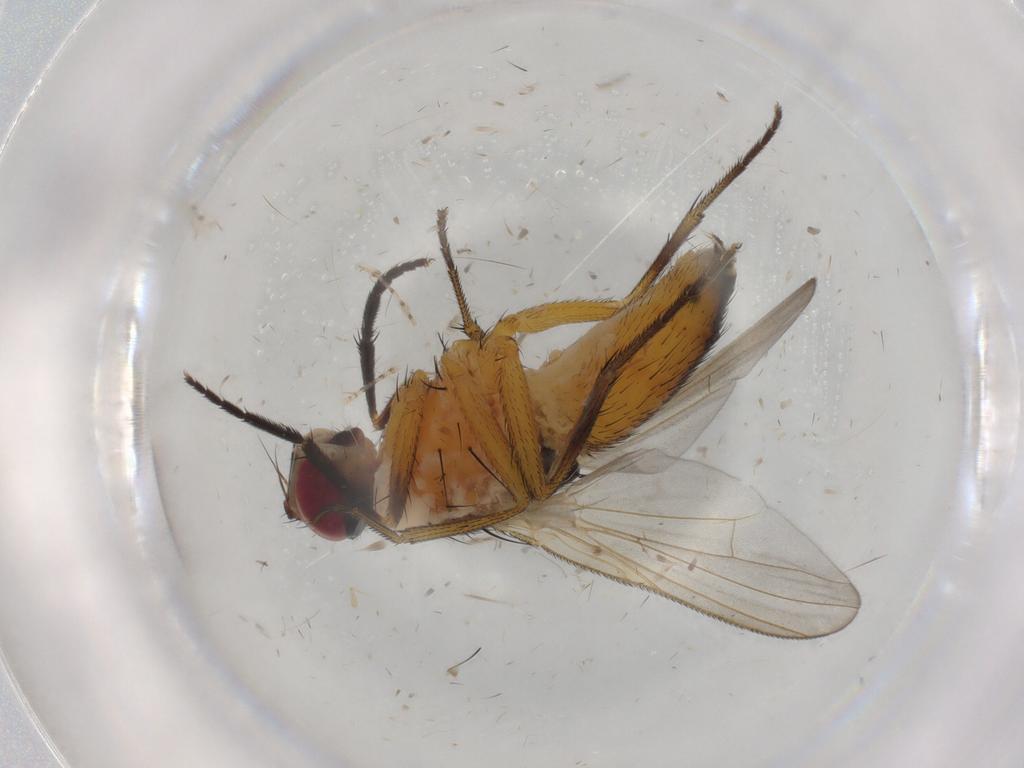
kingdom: Animalia
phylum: Arthropoda
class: Insecta
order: Diptera
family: Muscidae
